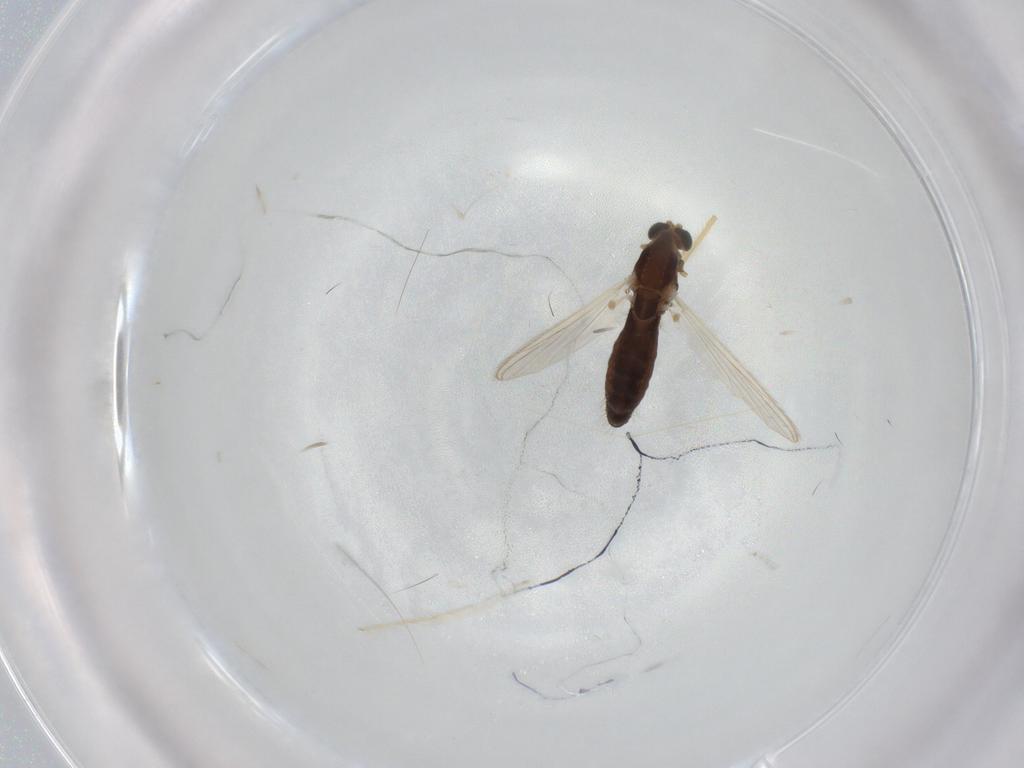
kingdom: Animalia
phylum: Arthropoda
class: Insecta
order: Diptera
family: Chironomidae
